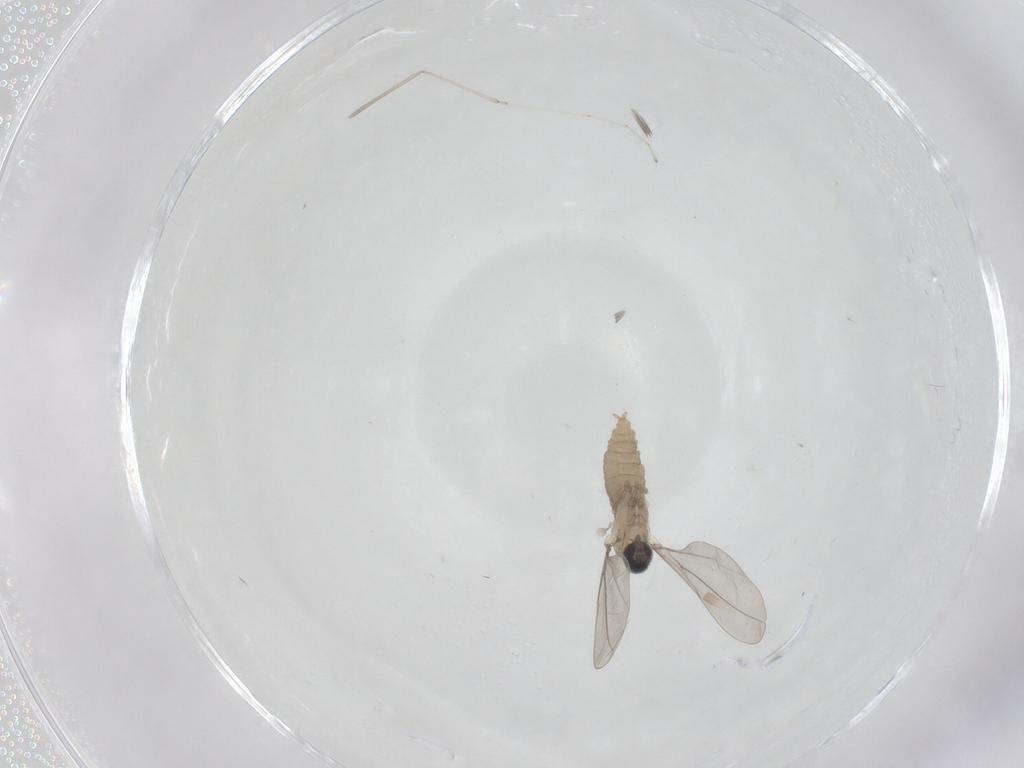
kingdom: Animalia
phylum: Arthropoda
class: Insecta
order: Diptera
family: Cecidomyiidae
